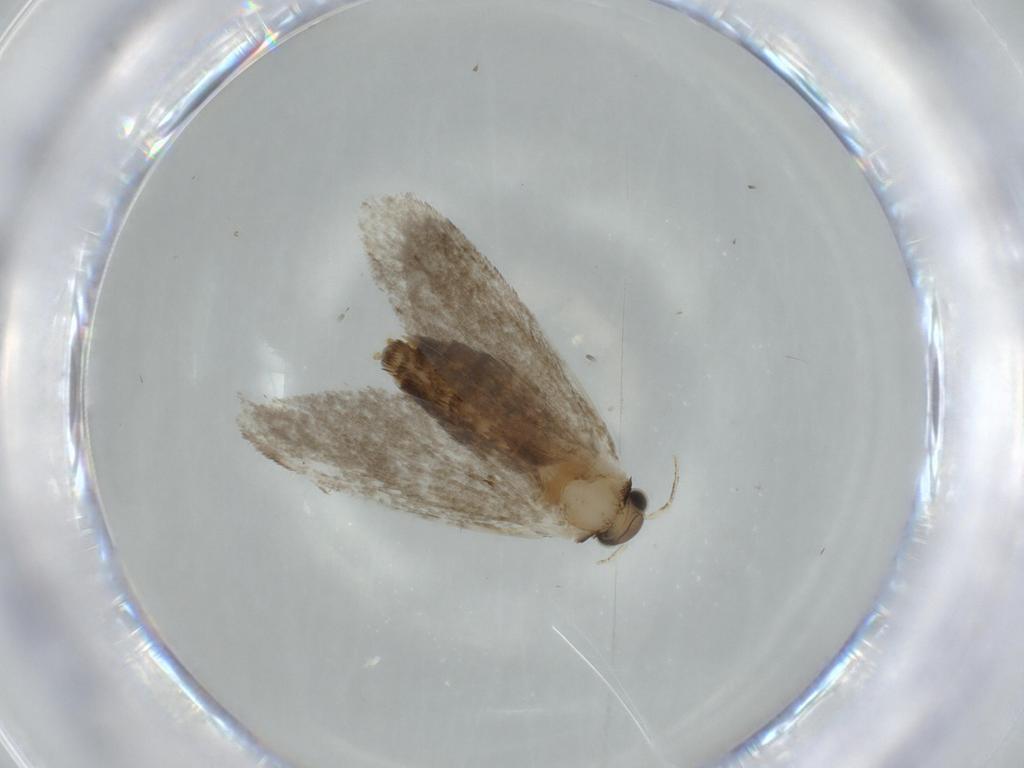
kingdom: Animalia
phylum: Arthropoda
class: Insecta
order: Lepidoptera
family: Tineidae
